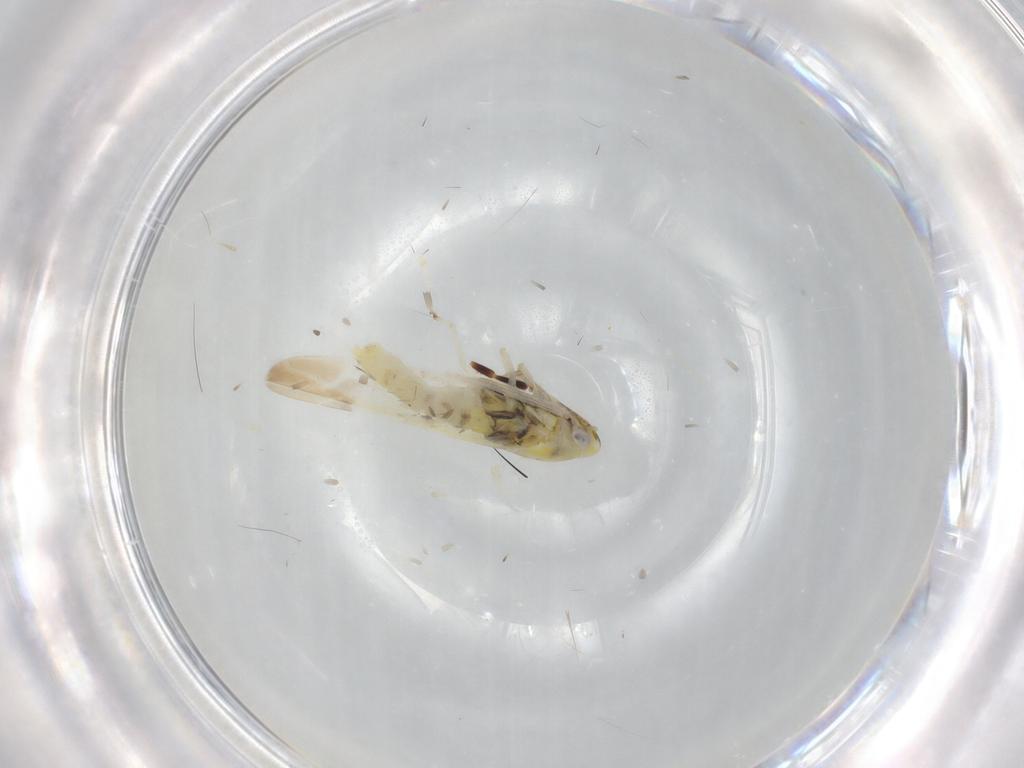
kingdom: Animalia
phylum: Arthropoda
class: Insecta
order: Hemiptera
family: Cicadellidae
